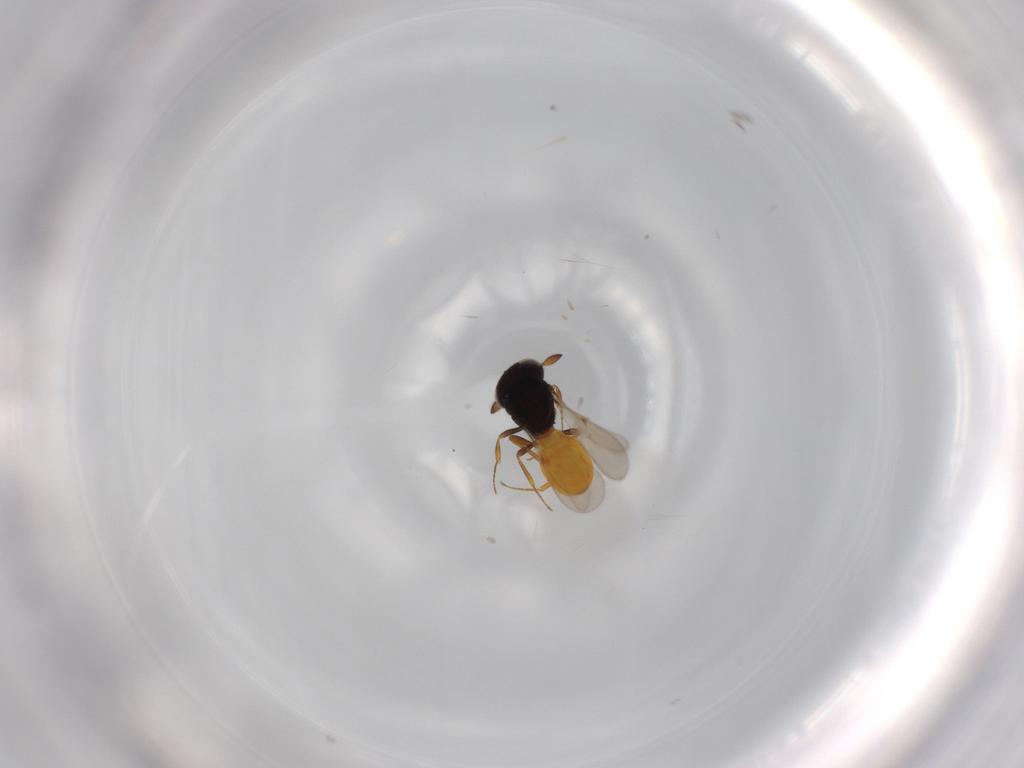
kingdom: Animalia
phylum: Arthropoda
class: Insecta
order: Hymenoptera
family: Scelionidae
